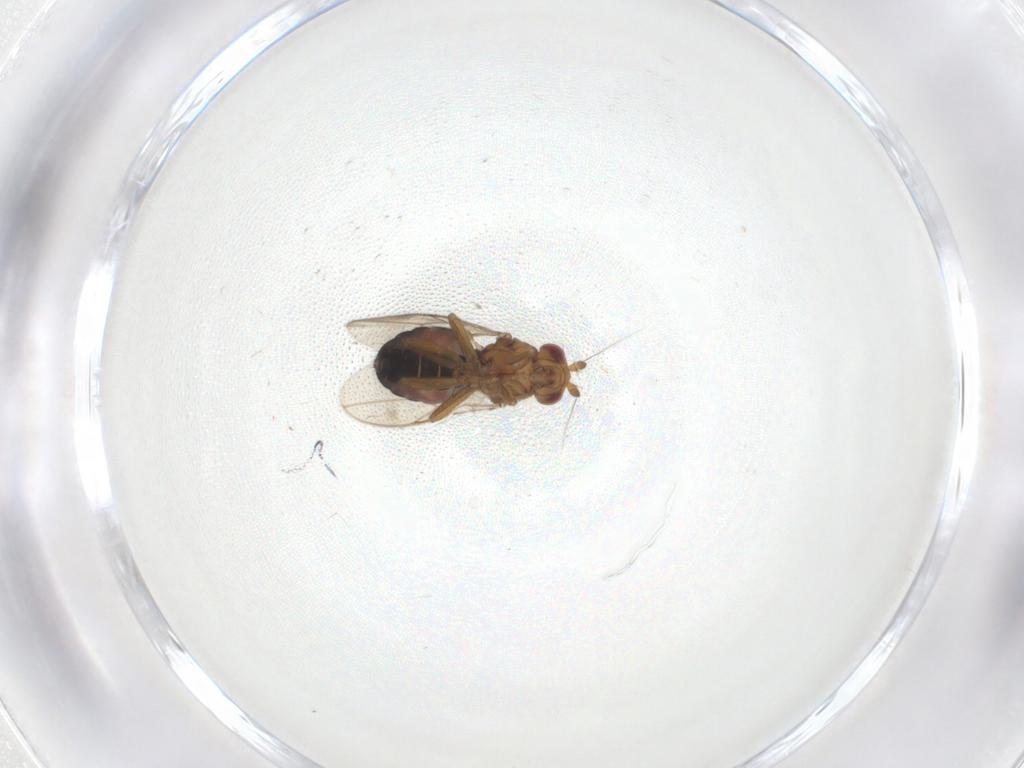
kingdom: Animalia
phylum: Arthropoda
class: Insecta
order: Diptera
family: Sphaeroceridae
